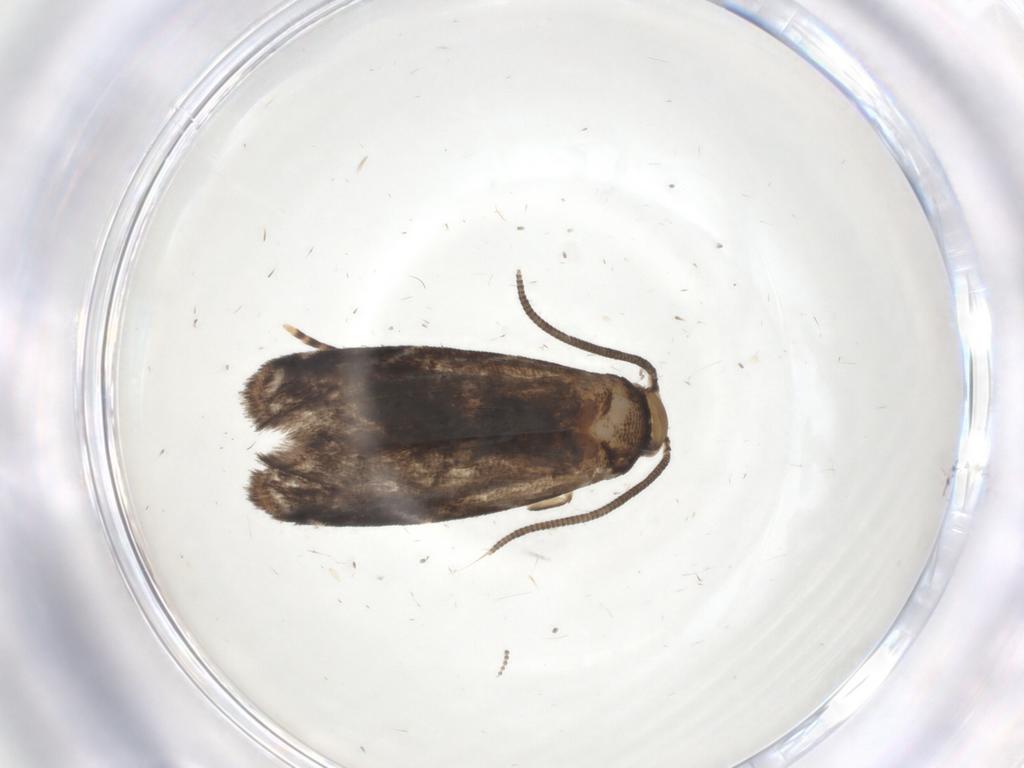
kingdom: Animalia
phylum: Arthropoda
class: Insecta
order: Lepidoptera
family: Dryadaulidae
